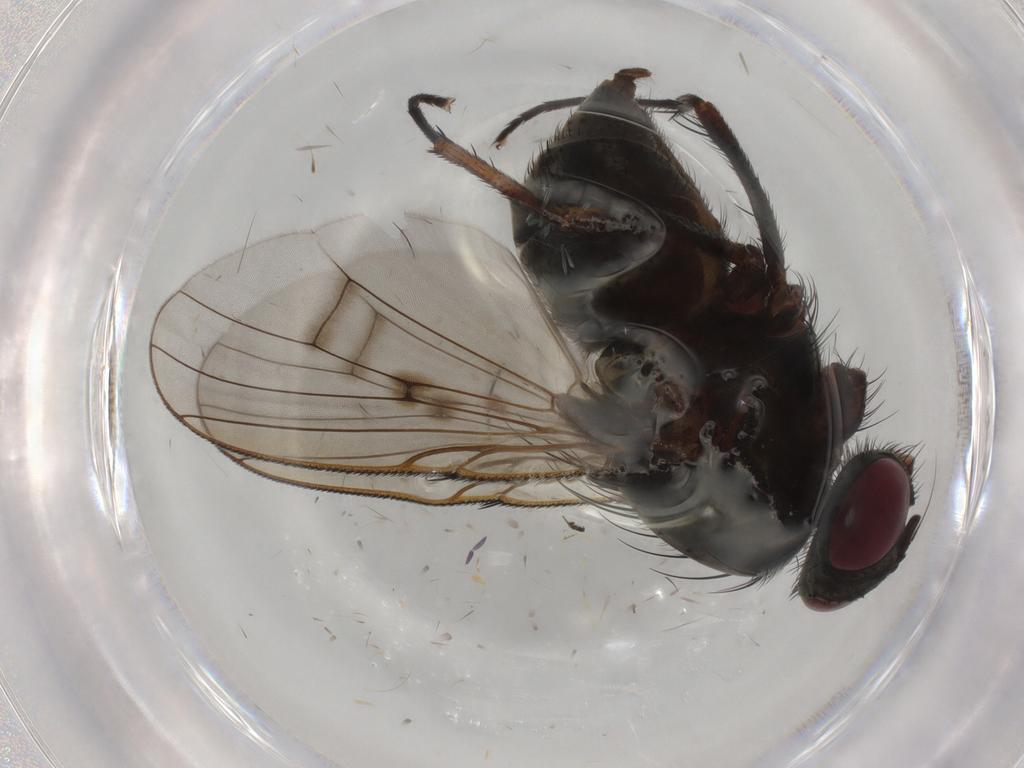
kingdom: Animalia
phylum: Arthropoda
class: Insecta
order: Diptera
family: Muscidae
